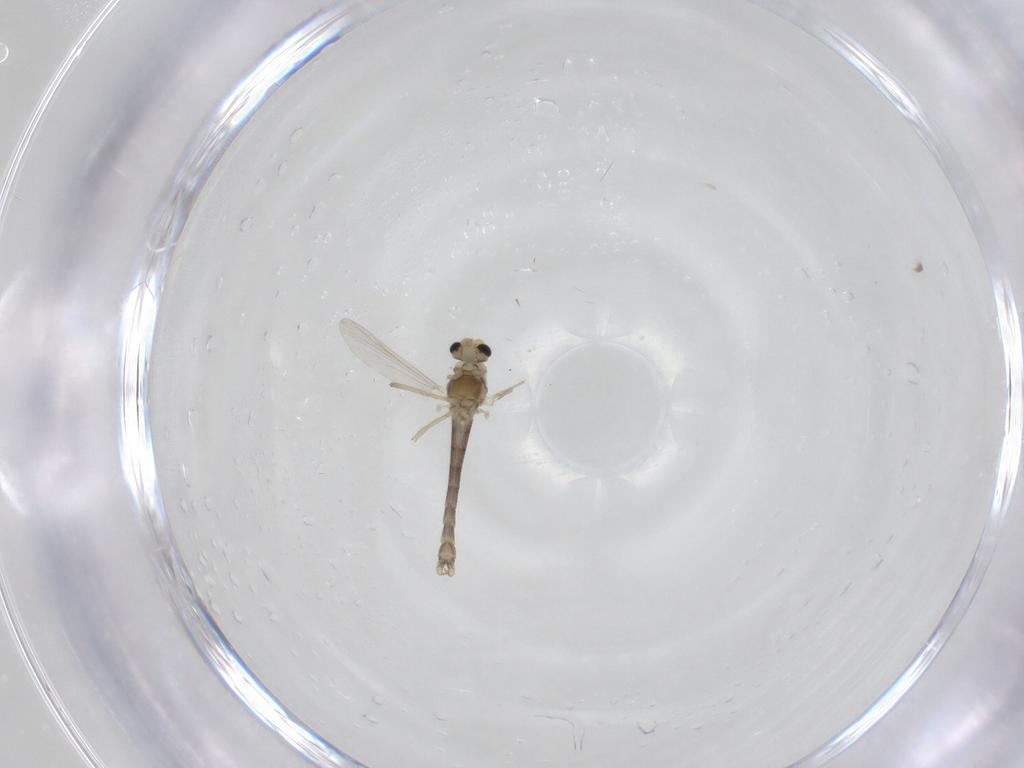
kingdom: Animalia
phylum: Arthropoda
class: Insecta
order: Diptera
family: Chironomidae
